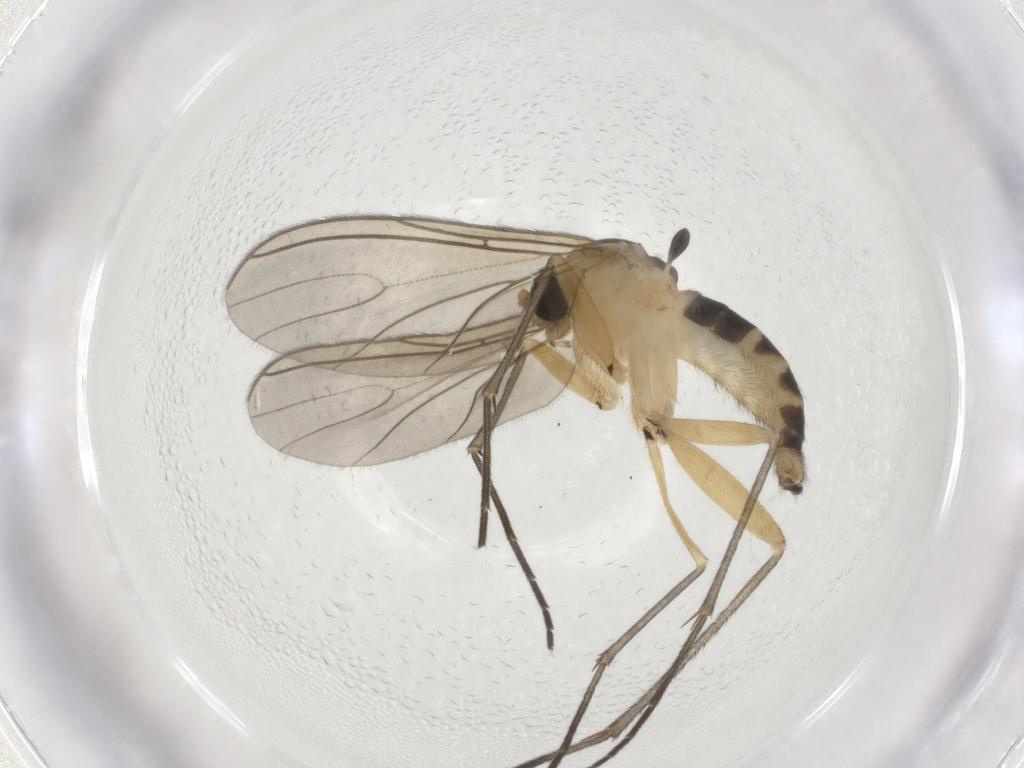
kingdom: Animalia
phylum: Arthropoda
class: Insecta
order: Diptera
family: Sciaridae
